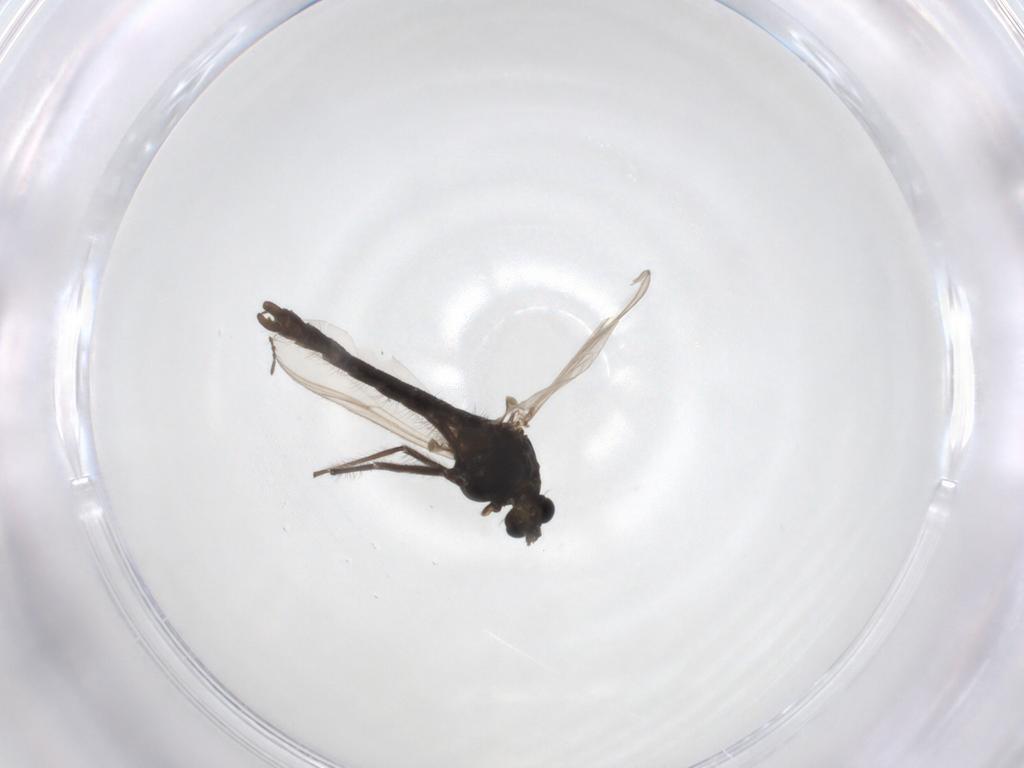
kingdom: Animalia
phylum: Arthropoda
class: Insecta
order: Diptera
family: Chironomidae
